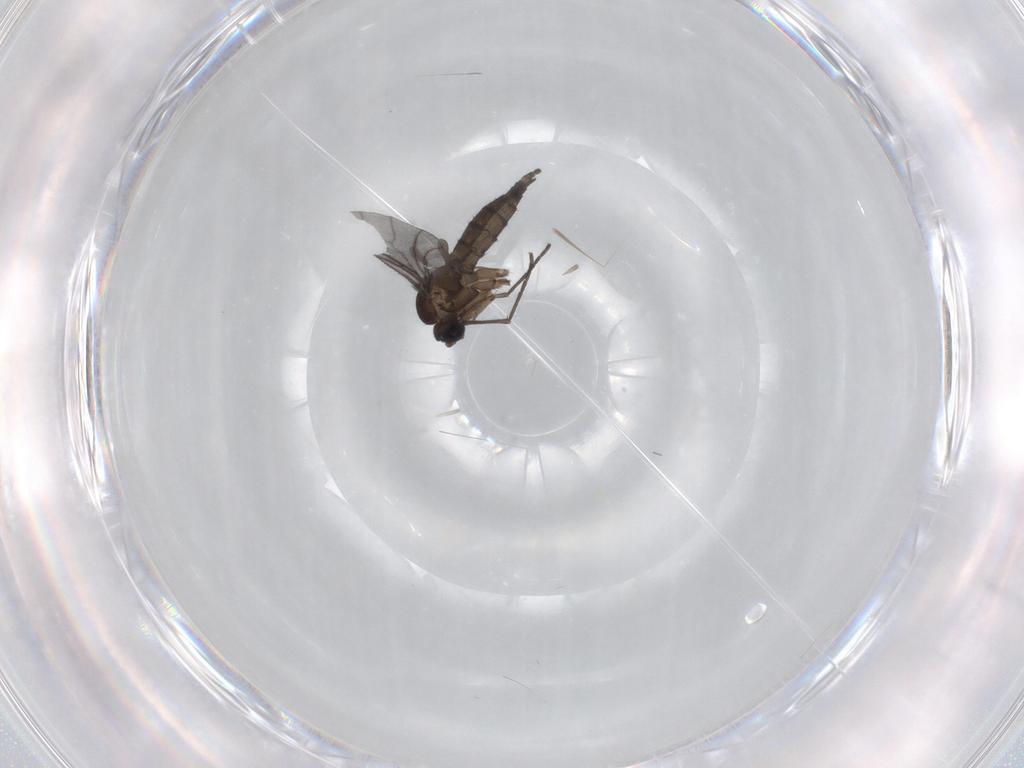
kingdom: Animalia
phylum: Arthropoda
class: Insecta
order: Diptera
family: Sciaridae
